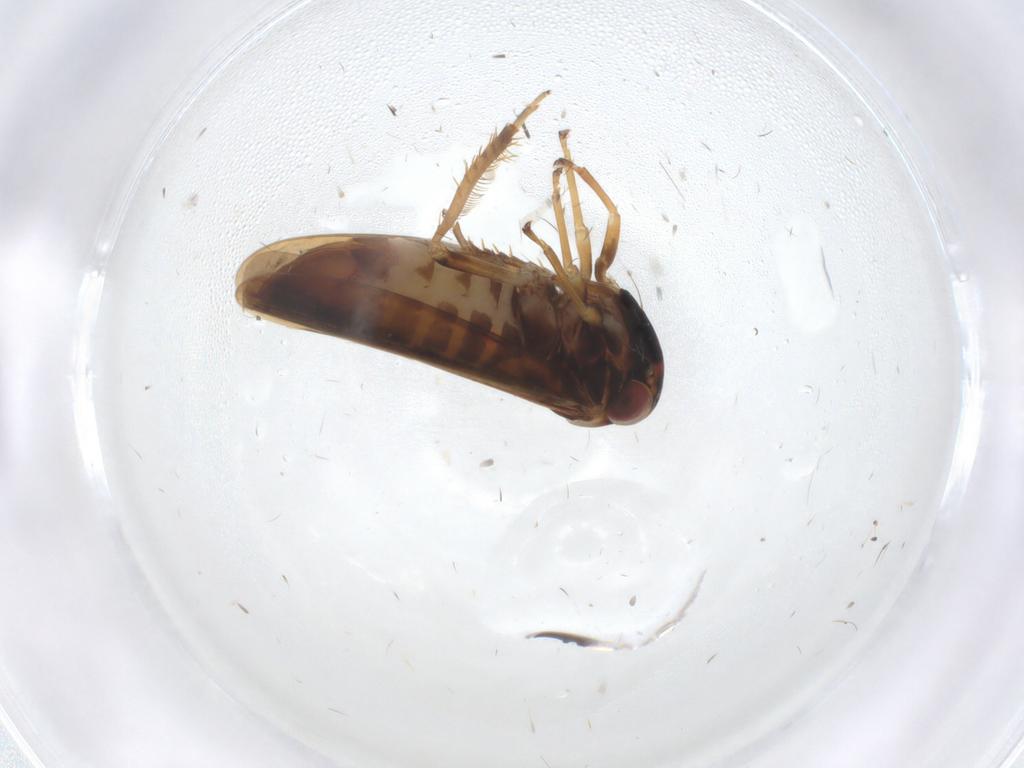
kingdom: Animalia
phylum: Arthropoda
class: Insecta
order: Hemiptera
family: Cicadellidae
